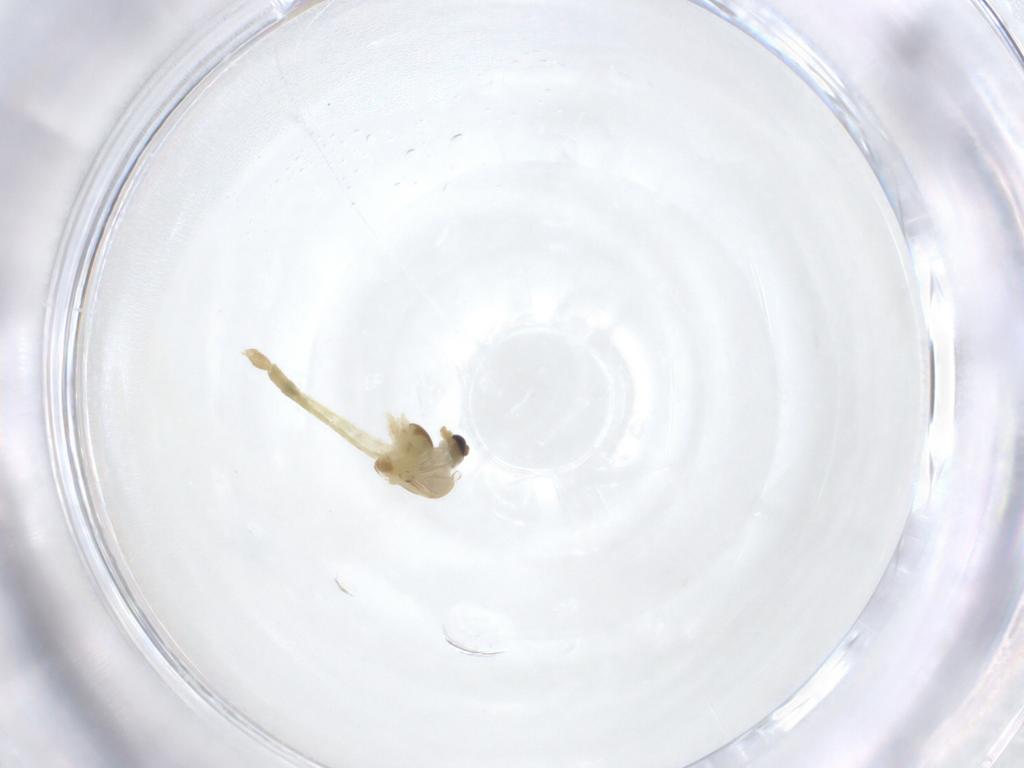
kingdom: Animalia
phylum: Arthropoda
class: Insecta
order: Diptera
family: Chironomidae
